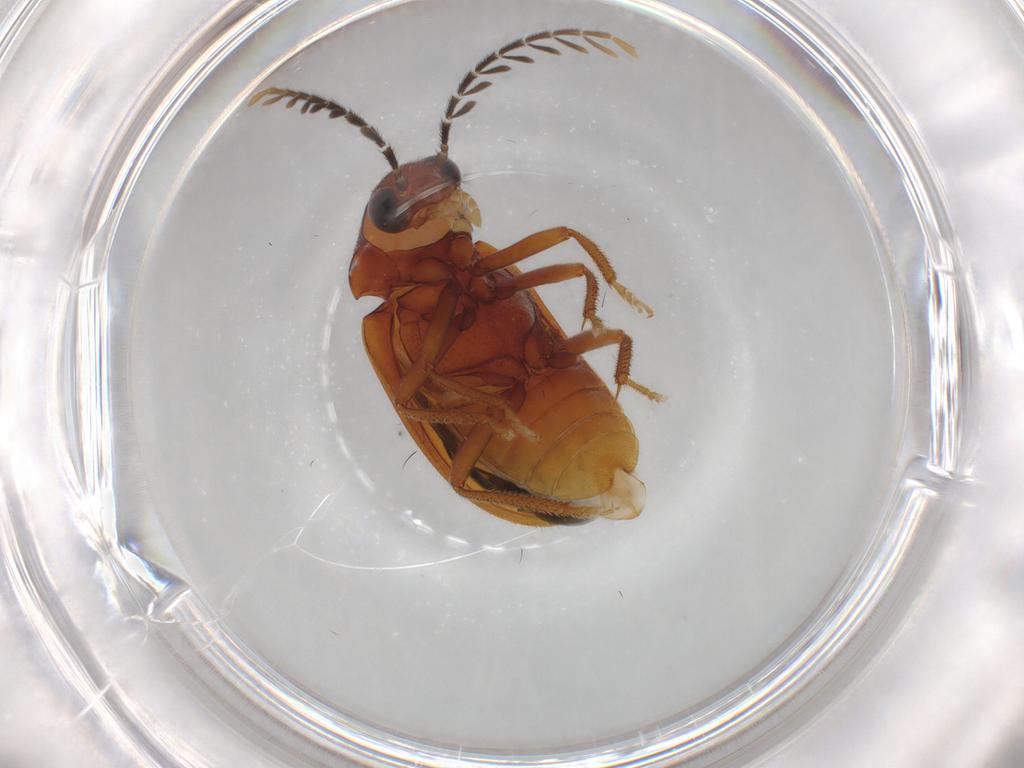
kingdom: Animalia
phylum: Arthropoda
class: Insecta
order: Coleoptera
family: Ptilodactylidae
